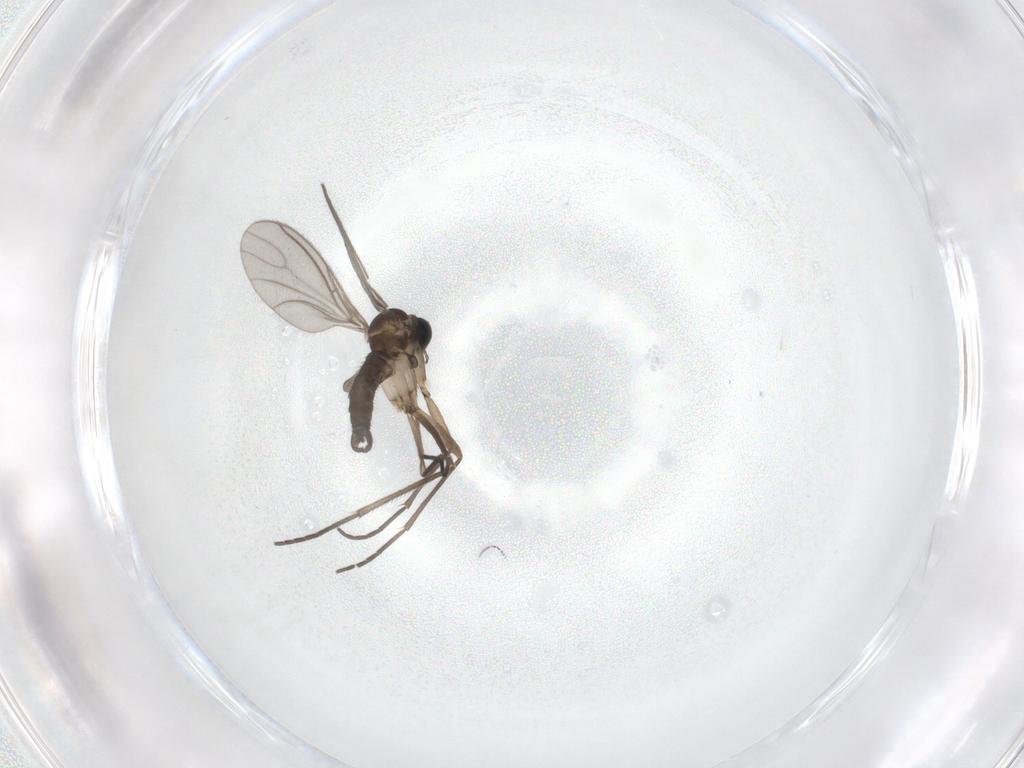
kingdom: Animalia
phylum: Arthropoda
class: Insecta
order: Diptera
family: Sciaridae
